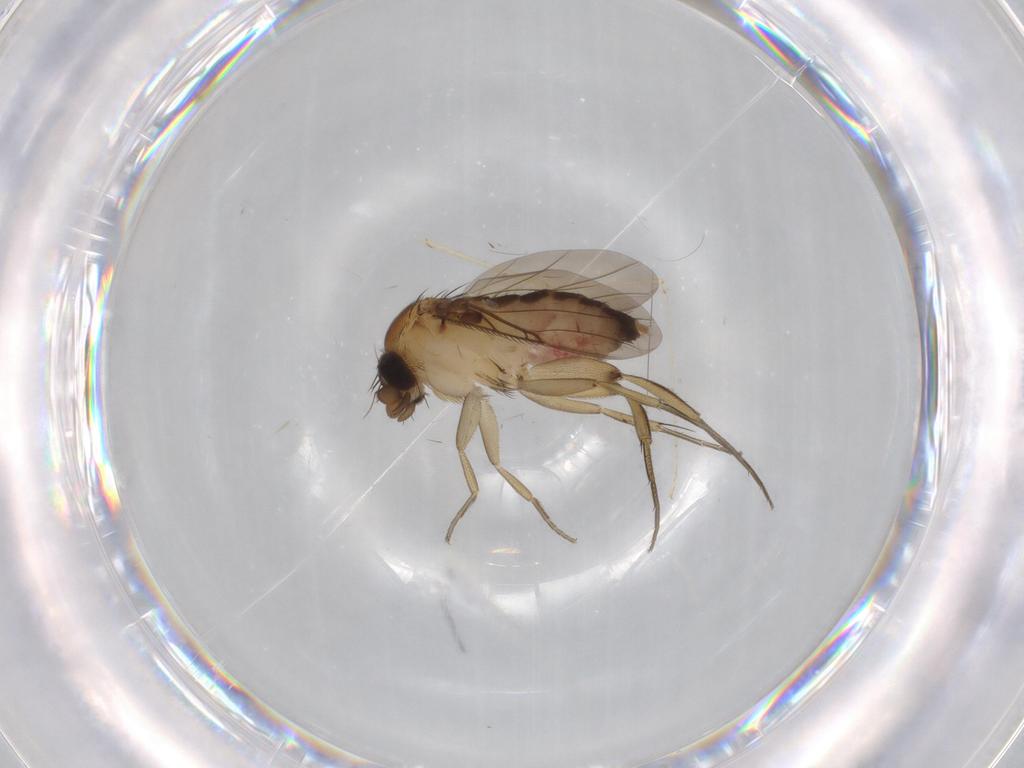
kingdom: Animalia
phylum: Arthropoda
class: Insecta
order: Diptera
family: Phoridae
